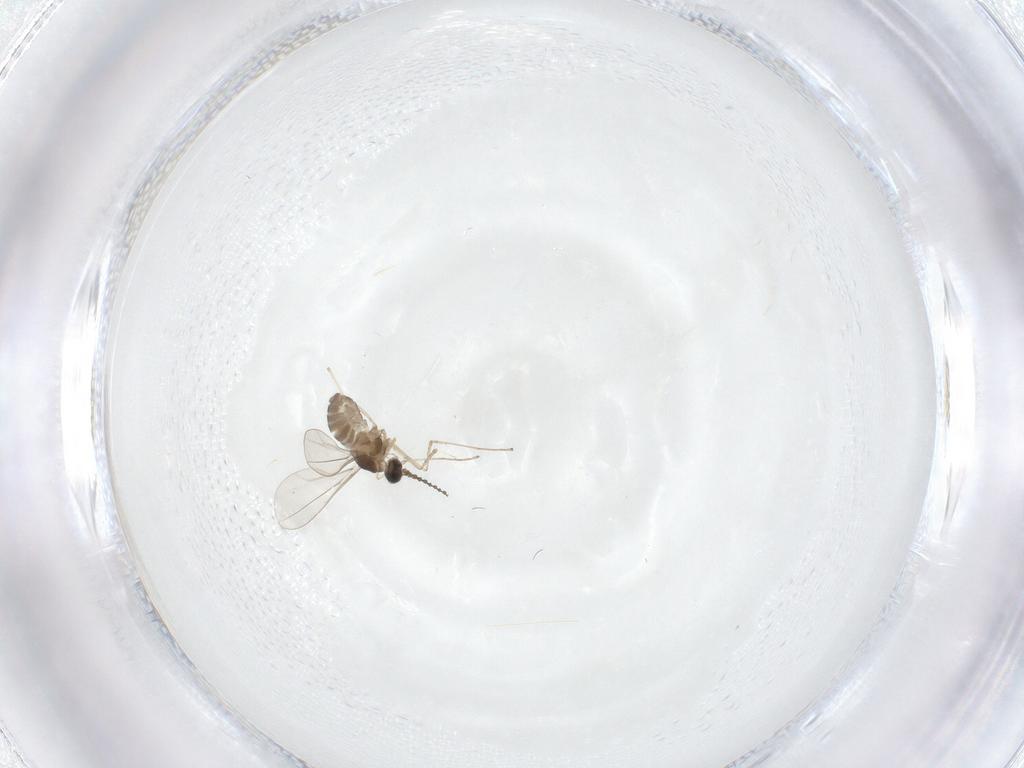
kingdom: Animalia
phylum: Arthropoda
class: Insecta
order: Diptera
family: Cecidomyiidae
